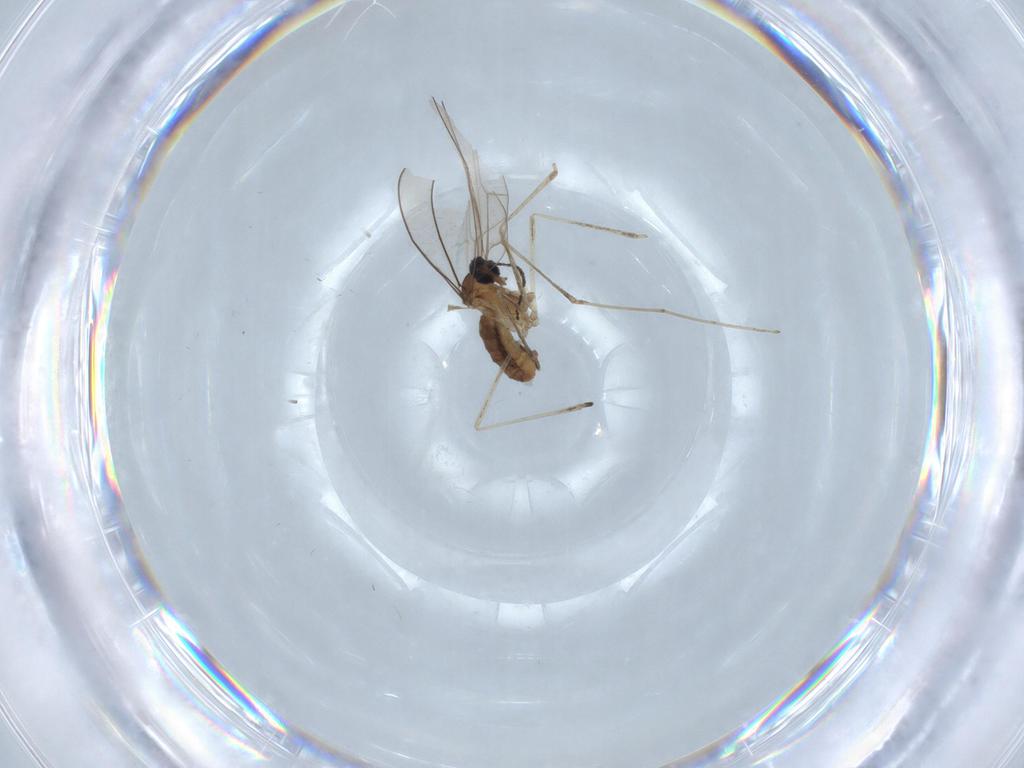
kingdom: Animalia
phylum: Arthropoda
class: Insecta
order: Diptera
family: Cecidomyiidae
